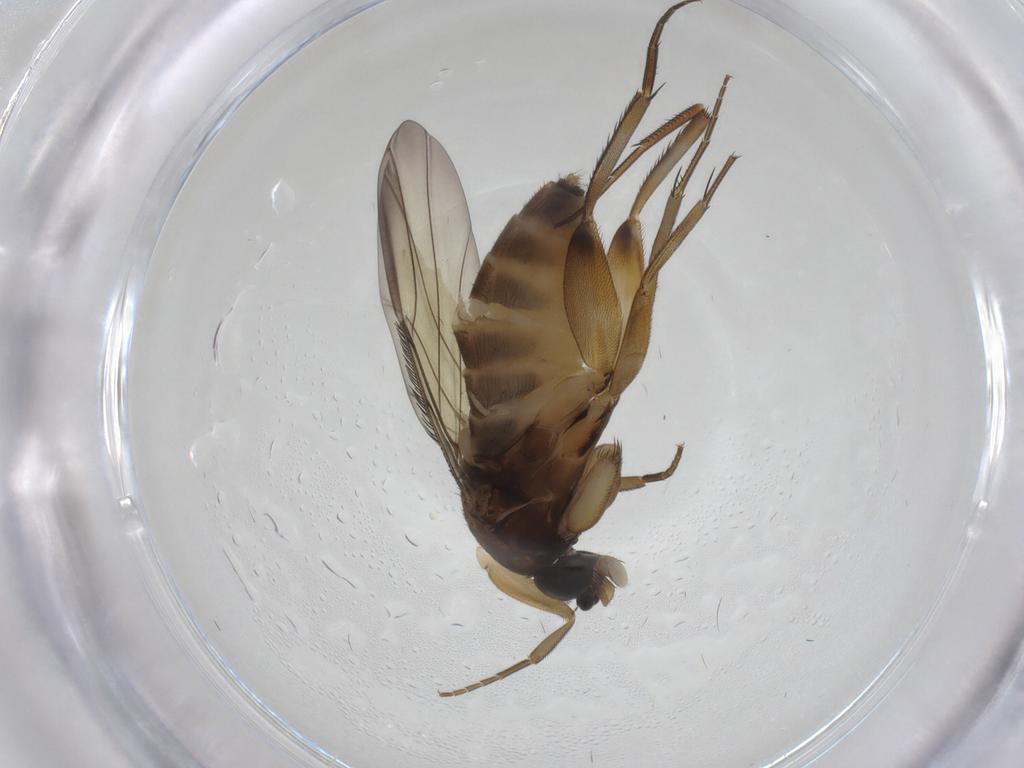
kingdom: Animalia
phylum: Arthropoda
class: Insecta
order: Diptera
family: Phoridae
